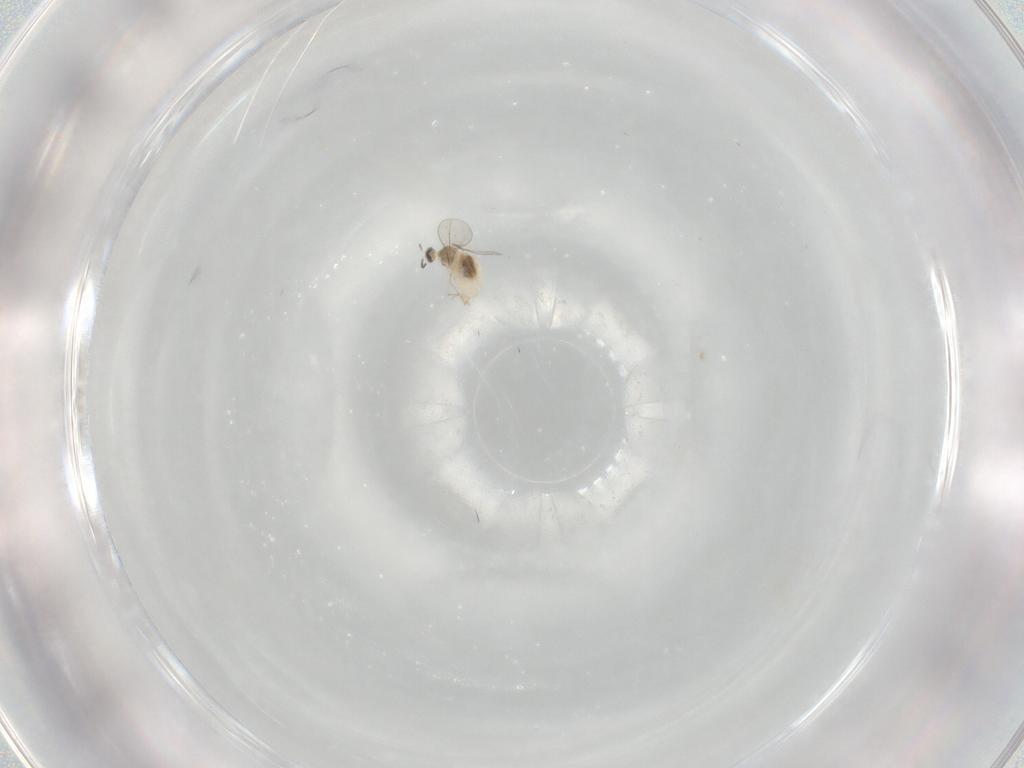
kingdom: Animalia
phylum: Arthropoda
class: Insecta
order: Diptera
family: Cecidomyiidae
